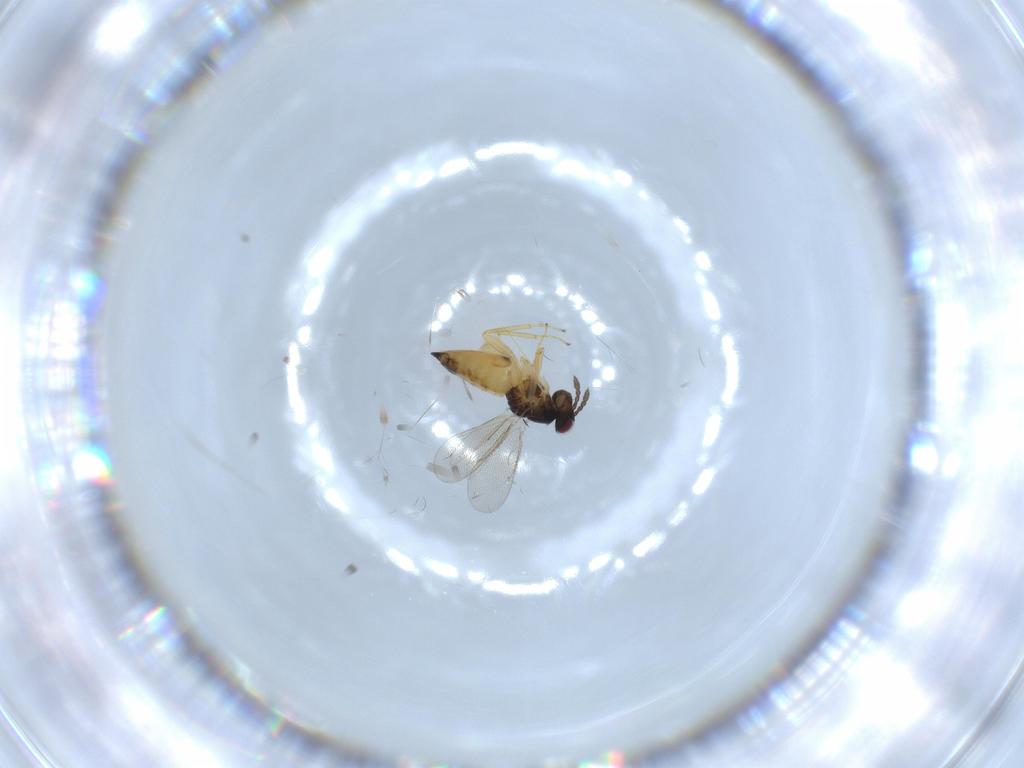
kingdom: Animalia
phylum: Arthropoda
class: Insecta
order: Hymenoptera
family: Eulophidae
